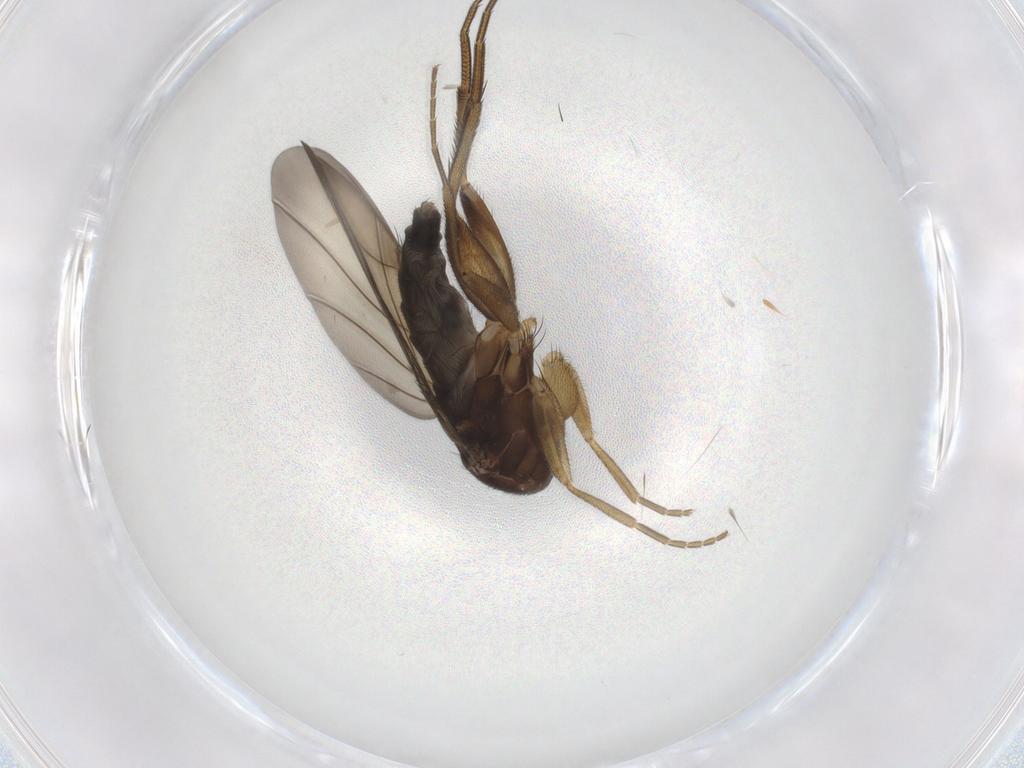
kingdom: Animalia
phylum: Arthropoda
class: Insecta
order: Diptera
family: Phoridae
